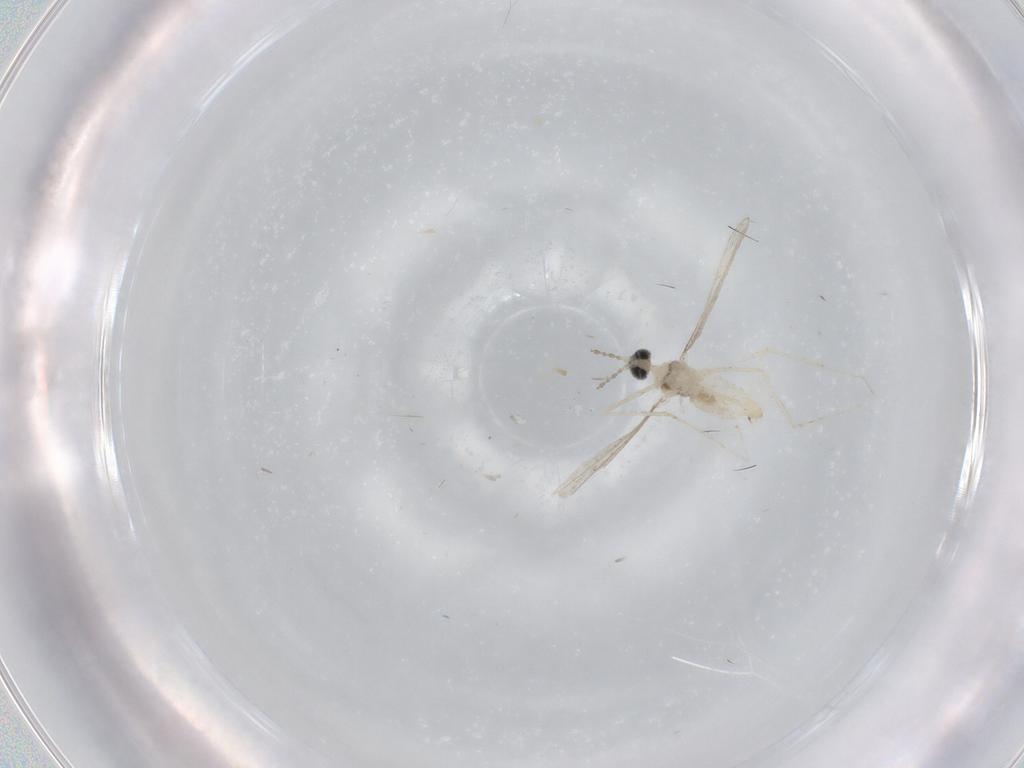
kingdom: Animalia
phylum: Arthropoda
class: Insecta
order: Diptera
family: Cecidomyiidae
